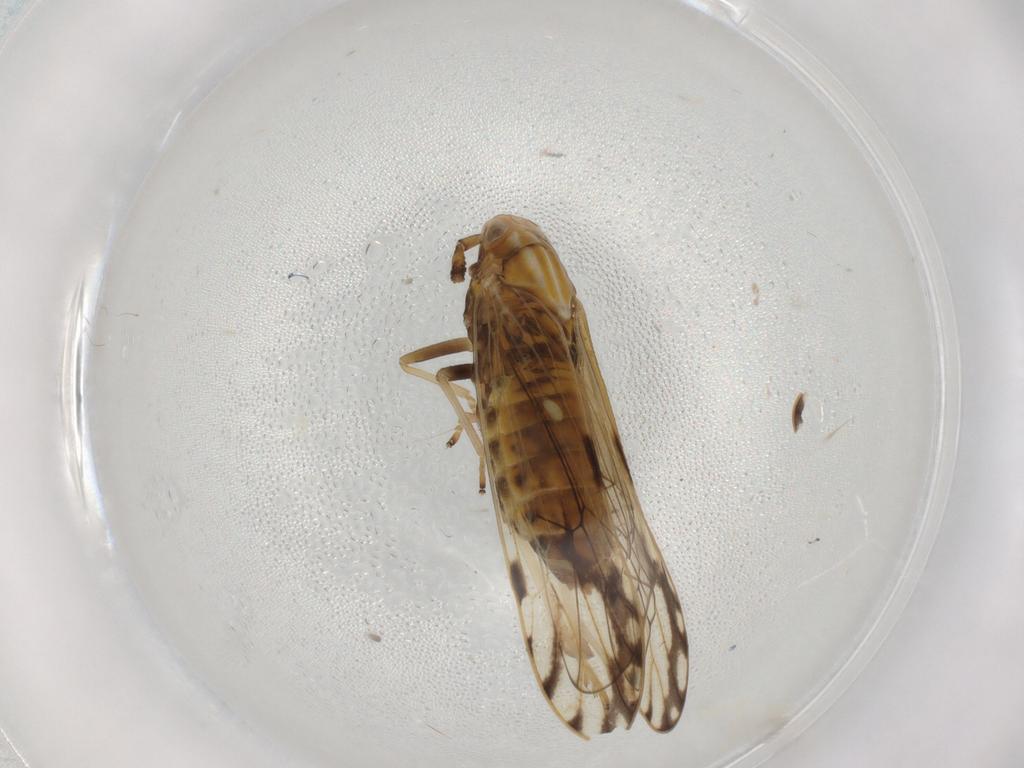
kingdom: Animalia
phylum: Arthropoda
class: Insecta
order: Hemiptera
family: Delphacidae
